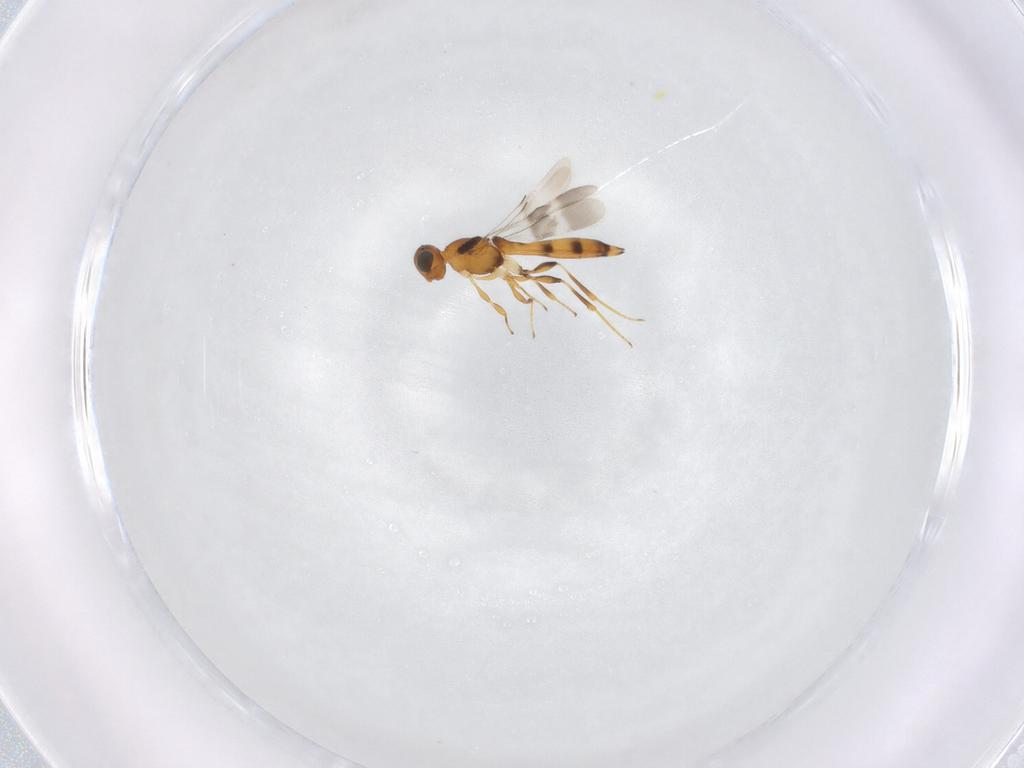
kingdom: Animalia
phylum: Arthropoda
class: Insecta
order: Hymenoptera
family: Scelionidae
